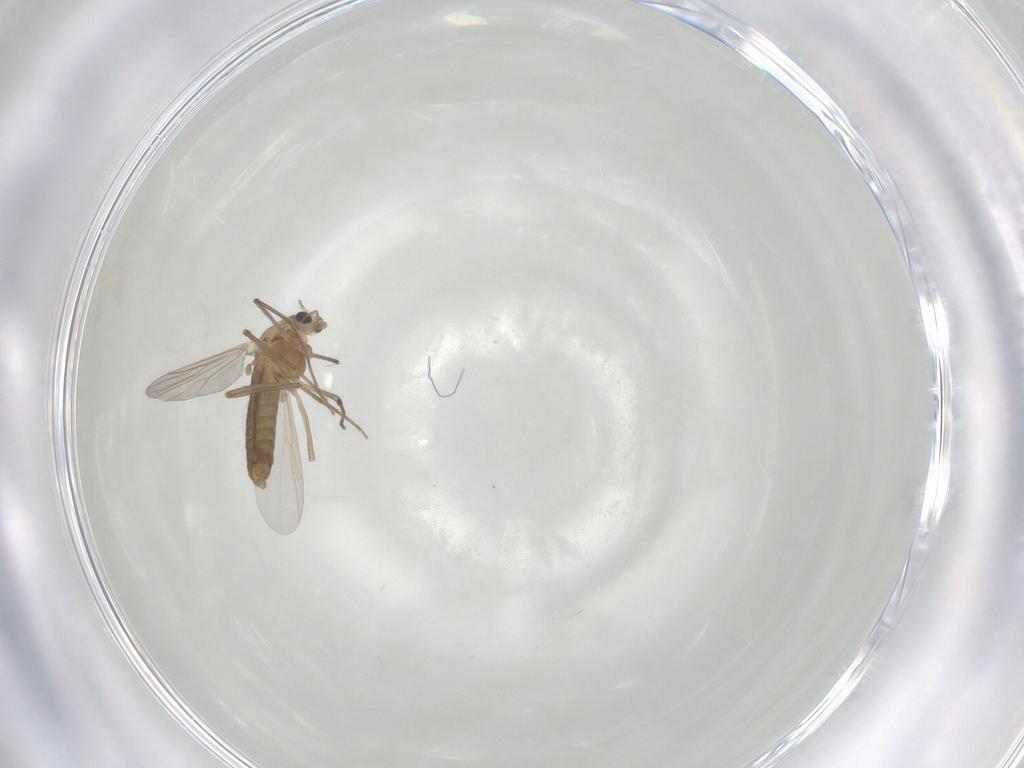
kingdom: Animalia
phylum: Arthropoda
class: Insecta
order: Diptera
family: Chironomidae
